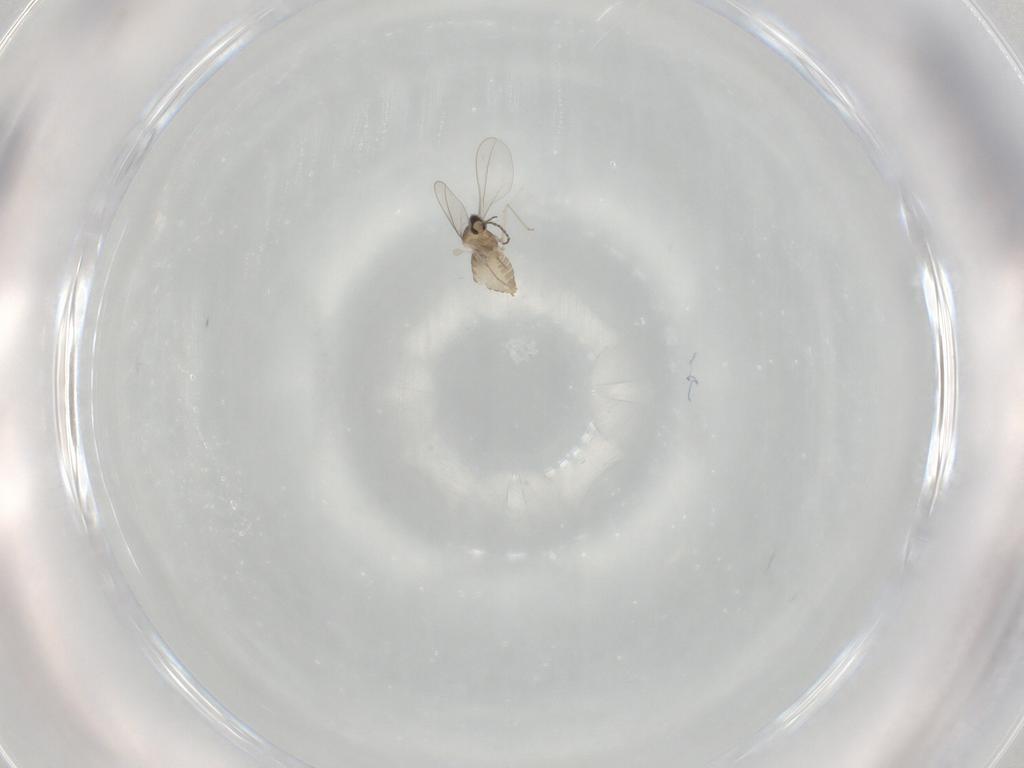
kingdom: Animalia
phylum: Arthropoda
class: Insecta
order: Diptera
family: Cecidomyiidae
